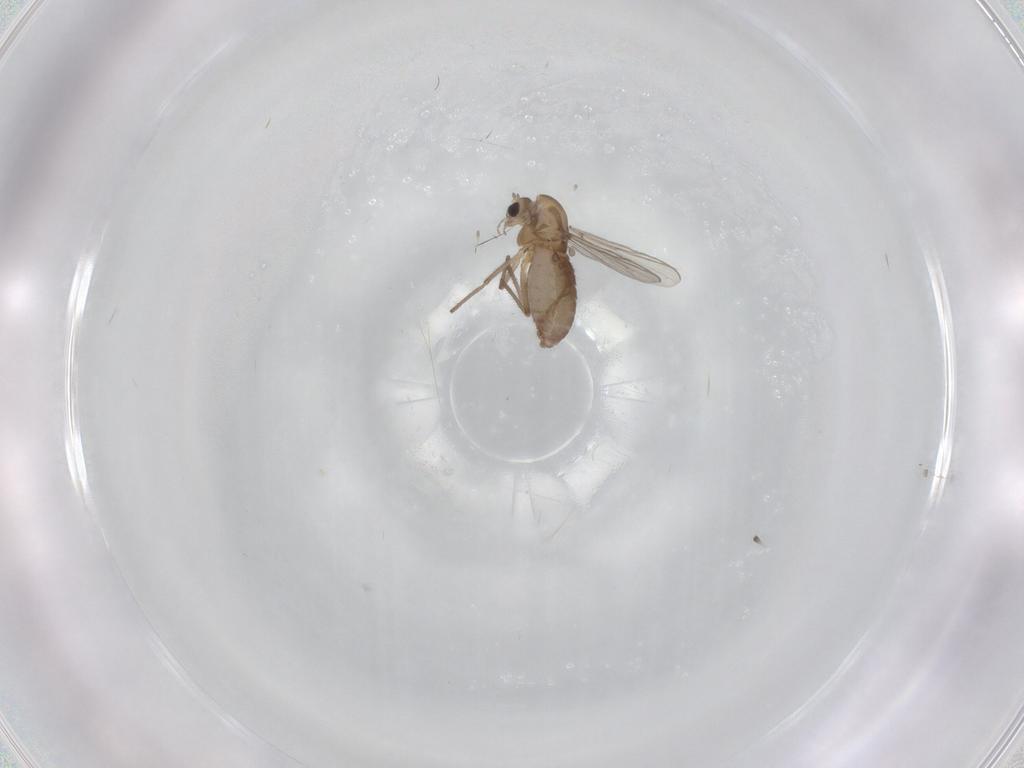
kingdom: Animalia
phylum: Arthropoda
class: Insecta
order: Diptera
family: Chironomidae
